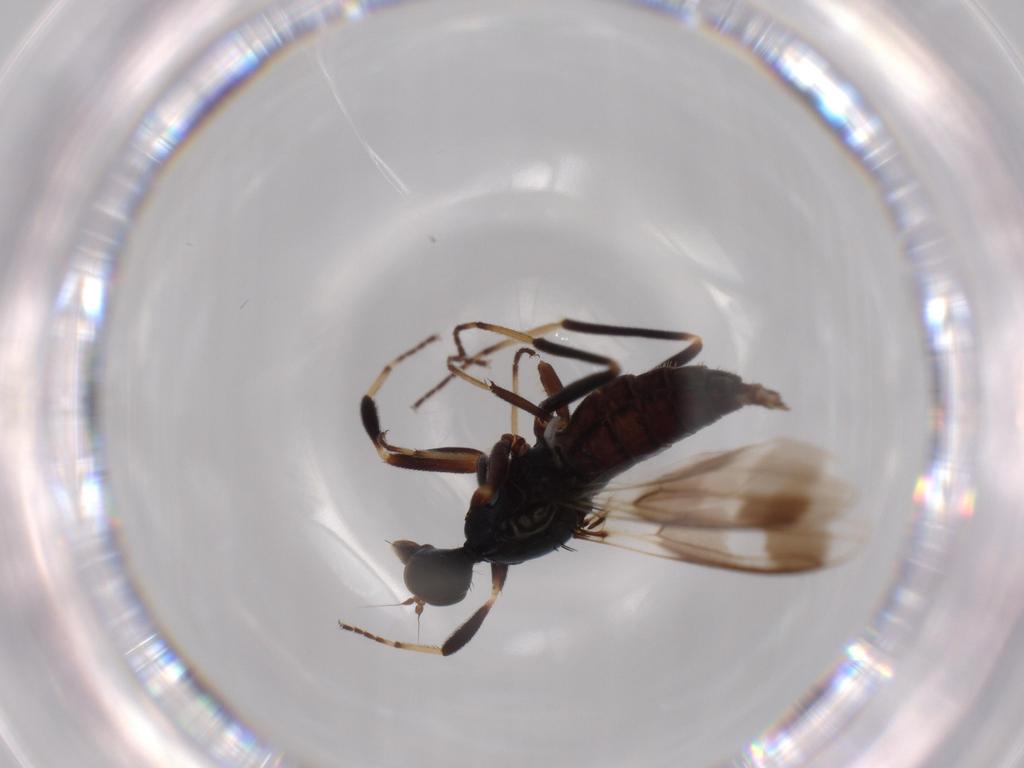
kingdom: Animalia
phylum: Arthropoda
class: Insecta
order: Diptera
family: Hybotidae
